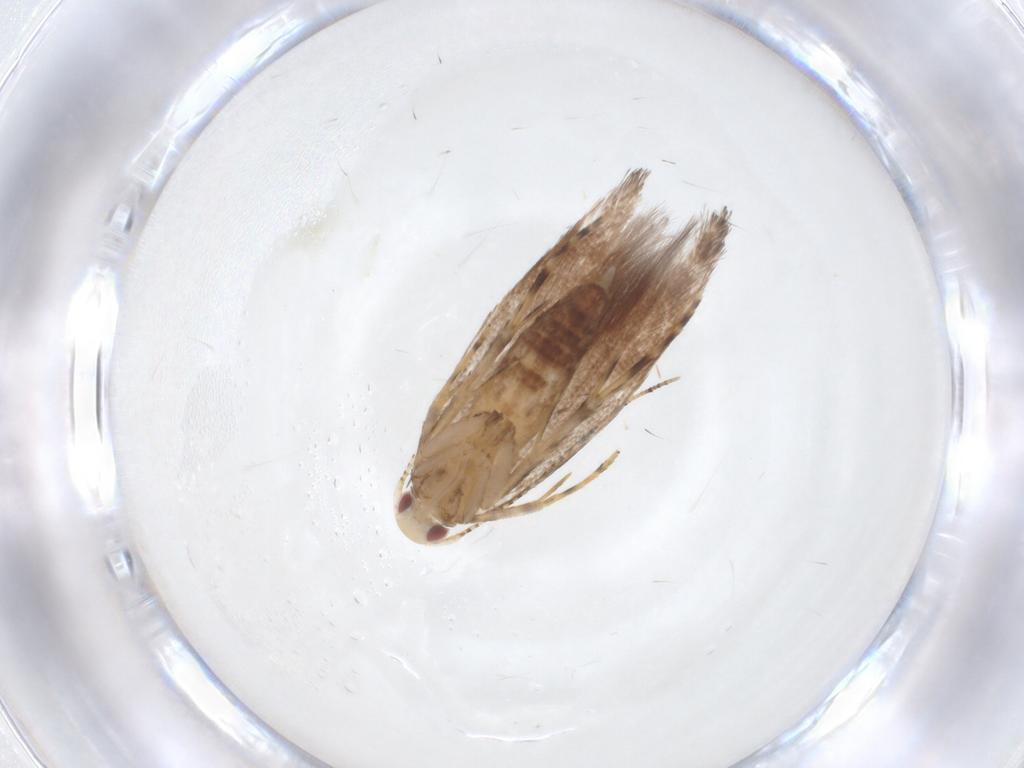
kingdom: Animalia
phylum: Arthropoda
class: Insecta
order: Lepidoptera
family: Cosmopterigidae
